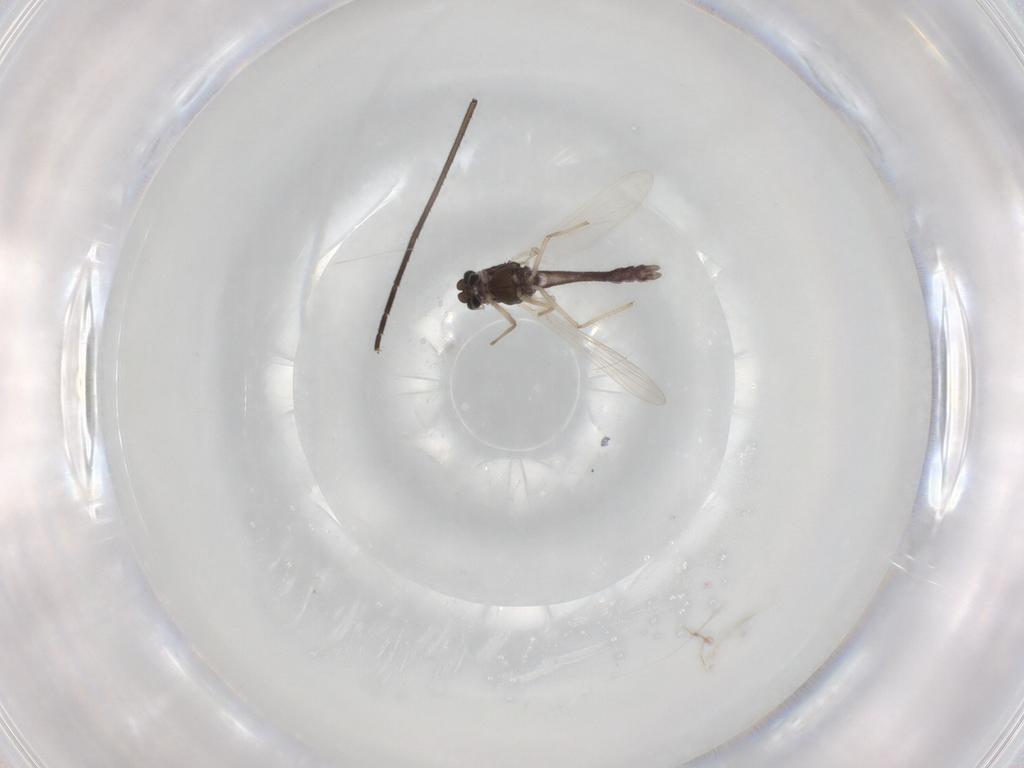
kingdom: Animalia
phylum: Arthropoda
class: Insecta
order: Diptera
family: Chironomidae
